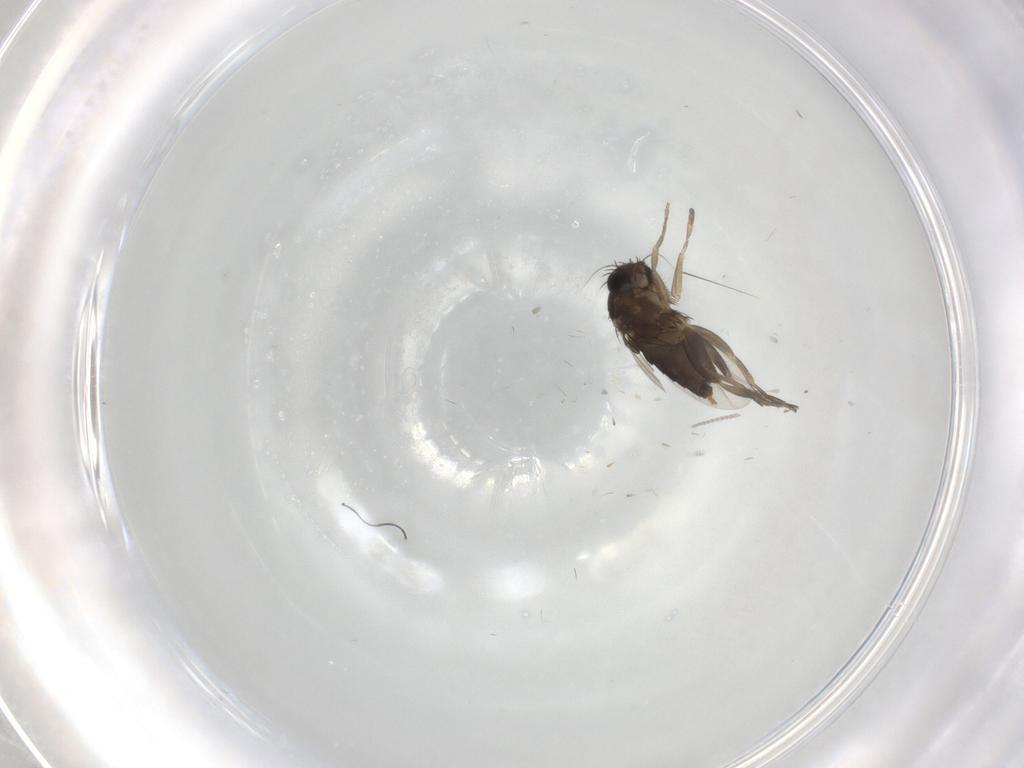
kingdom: Animalia
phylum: Arthropoda
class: Insecta
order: Diptera
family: Phoridae
